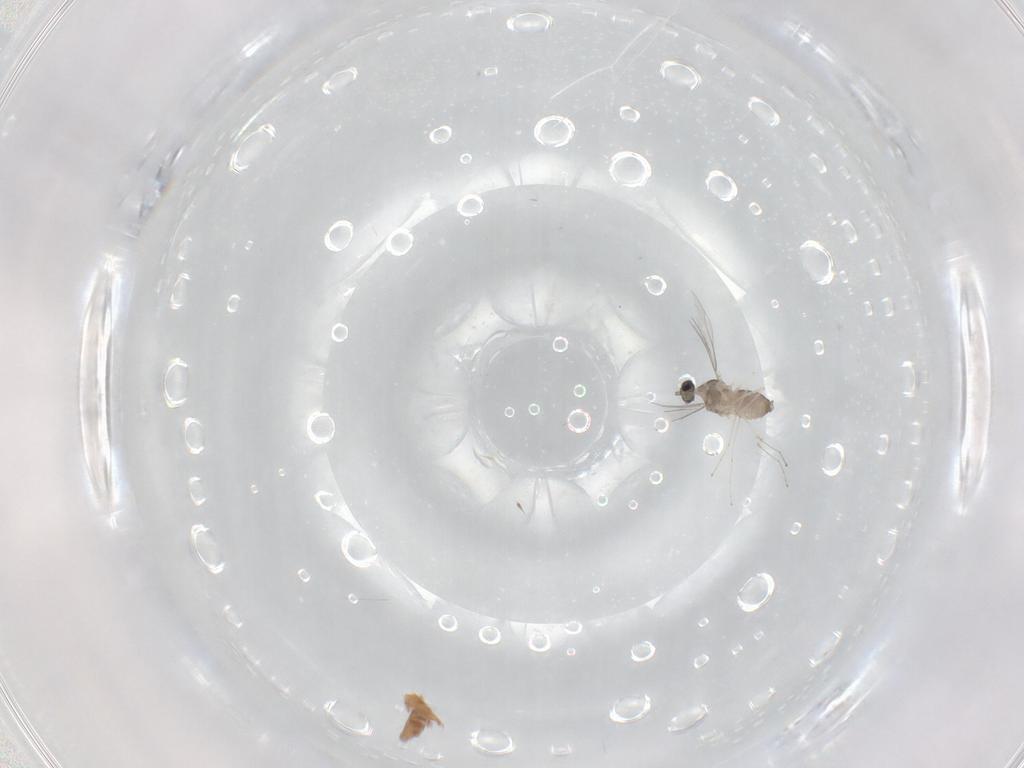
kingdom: Animalia
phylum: Arthropoda
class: Insecta
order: Diptera
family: Cecidomyiidae
